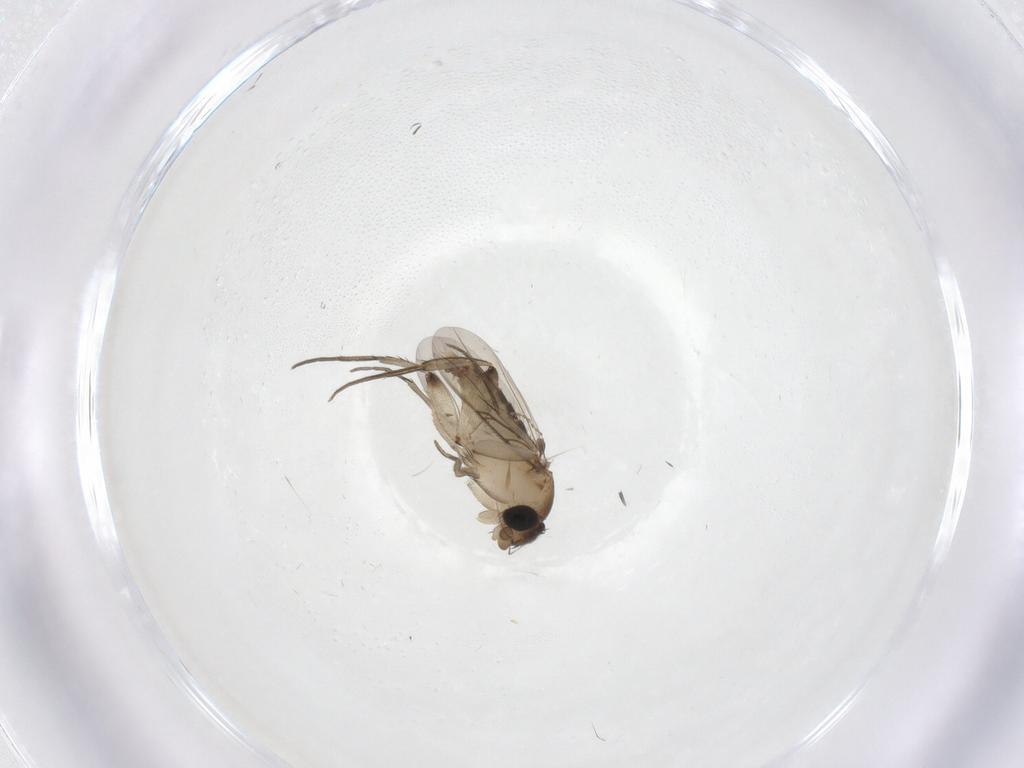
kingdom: Animalia
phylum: Arthropoda
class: Insecta
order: Diptera
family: Phoridae
